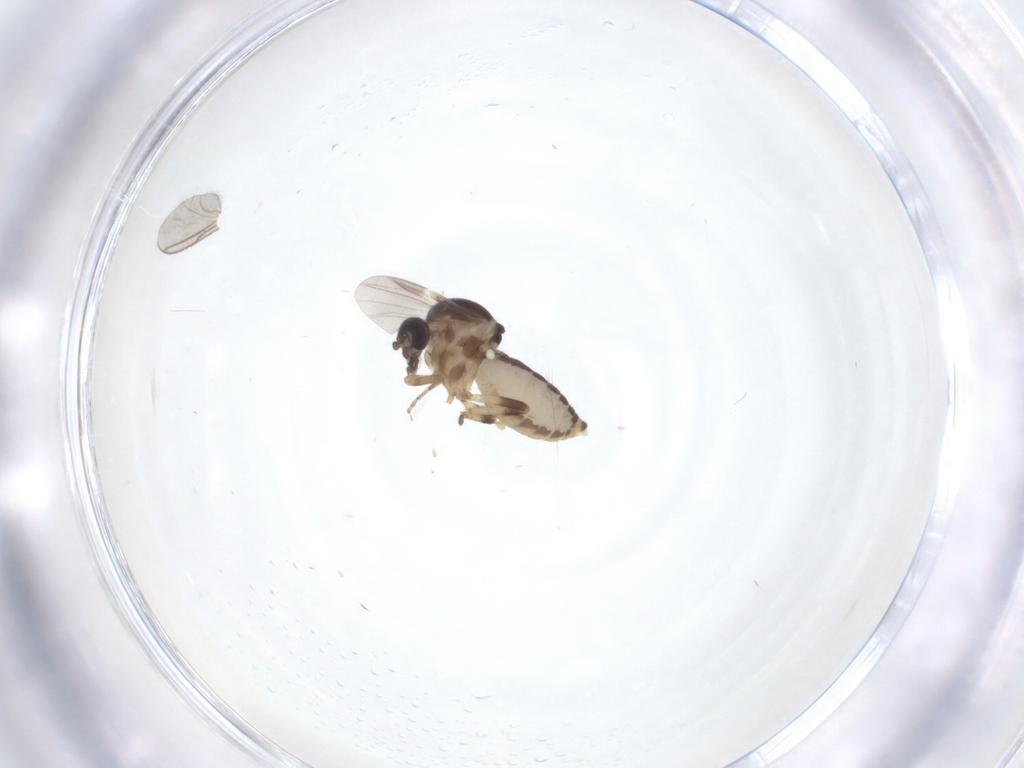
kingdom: Animalia
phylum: Arthropoda
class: Insecta
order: Diptera
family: Ceratopogonidae
